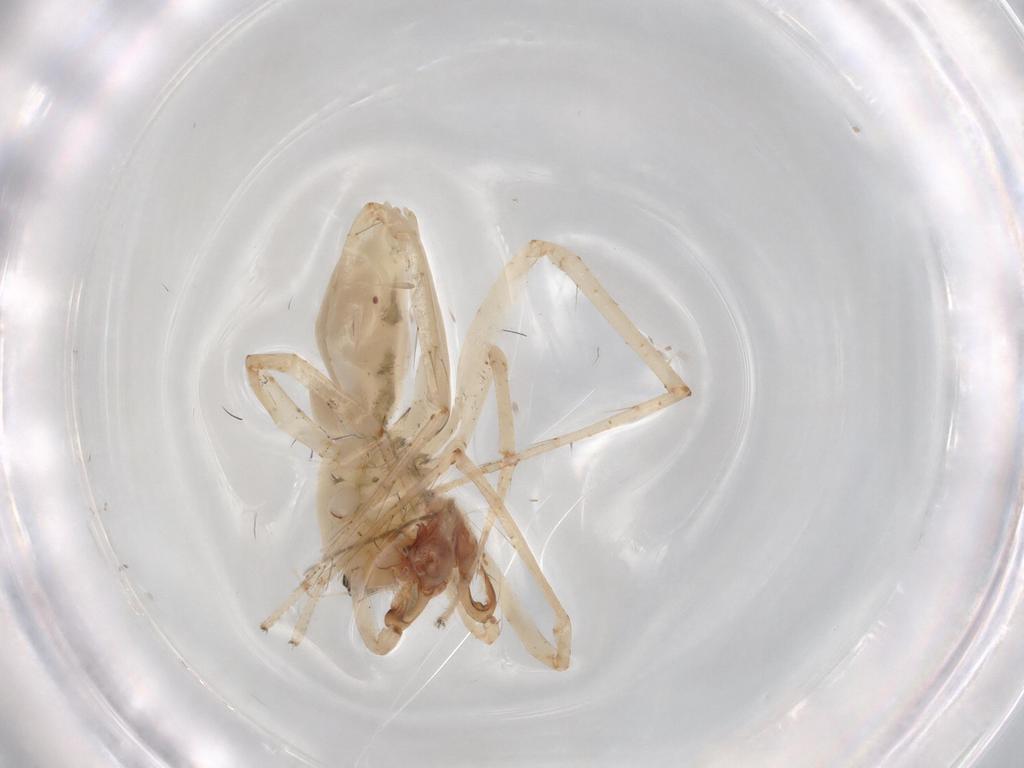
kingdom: Animalia
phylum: Arthropoda
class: Arachnida
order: Araneae
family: Anyphaenidae
